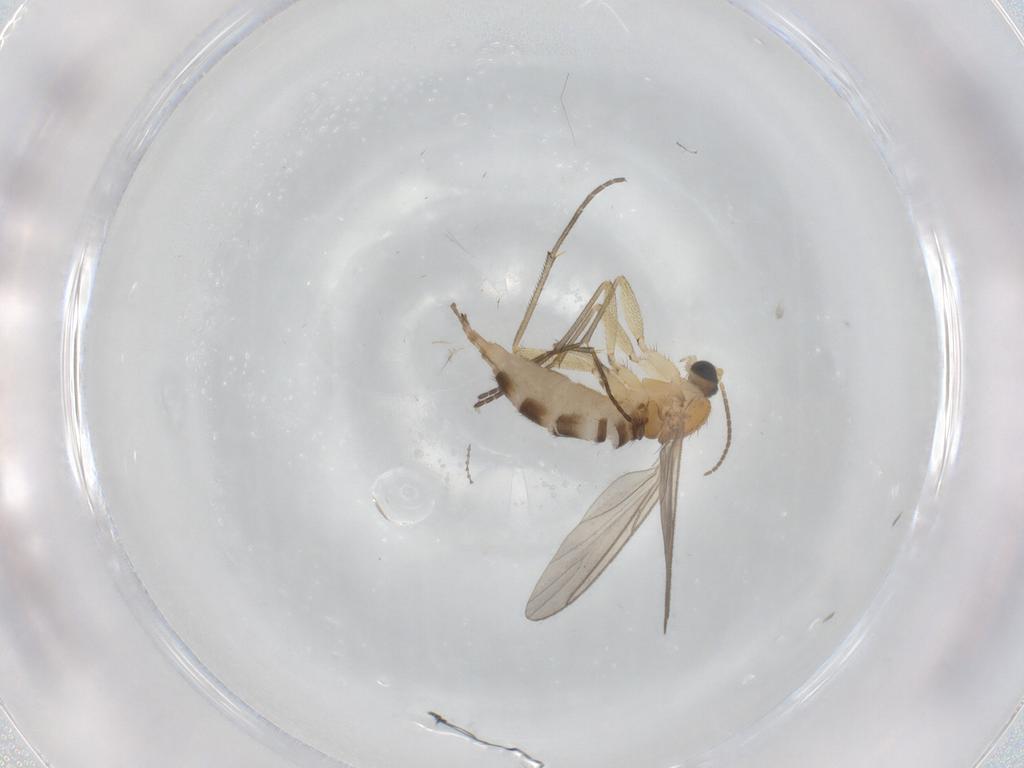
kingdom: Animalia
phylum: Arthropoda
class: Insecta
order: Diptera
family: Sciaridae
